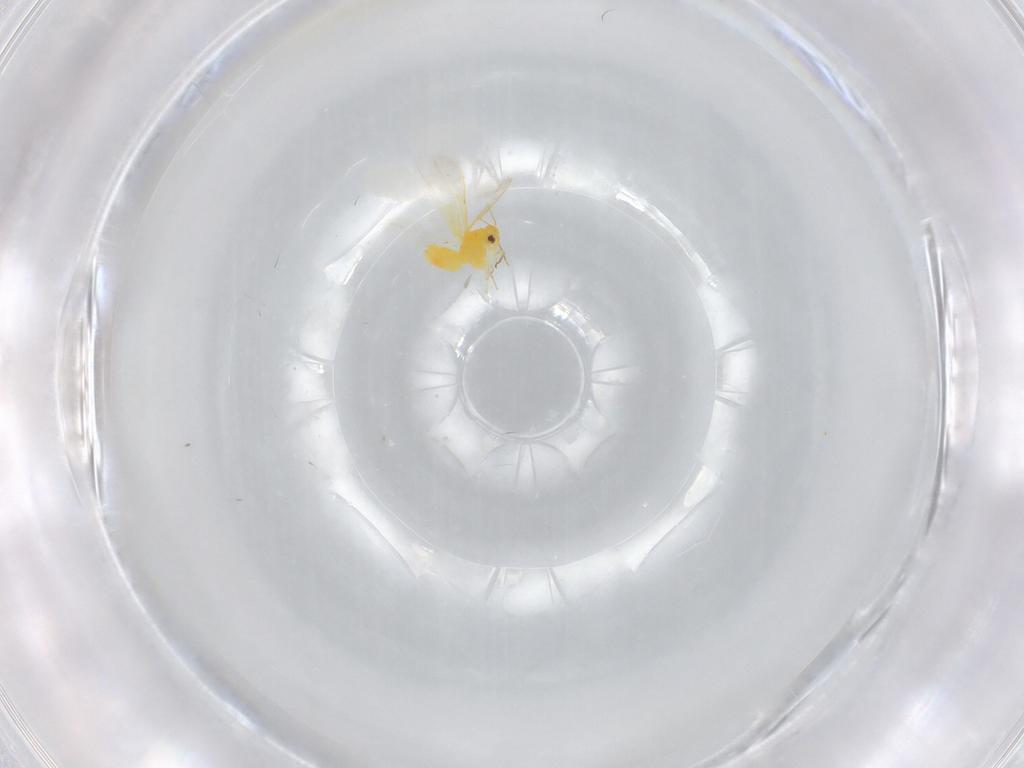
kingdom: Animalia
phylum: Arthropoda
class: Insecta
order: Hemiptera
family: Aleyrodidae
